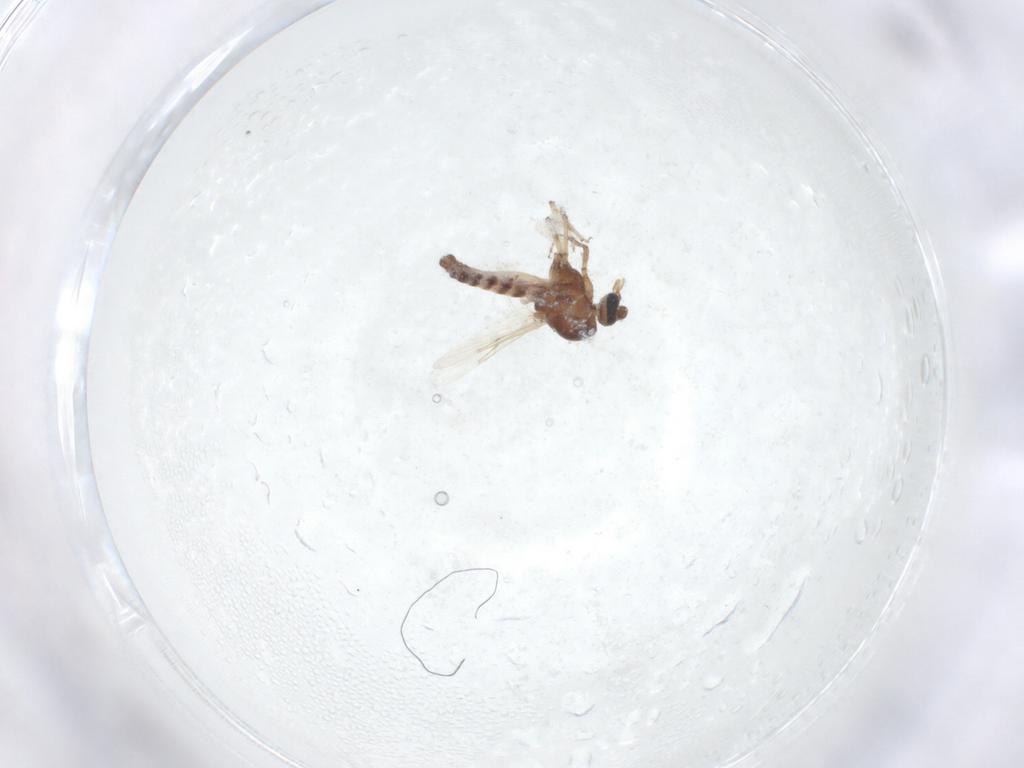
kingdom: Animalia
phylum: Arthropoda
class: Insecta
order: Diptera
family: Ceratopogonidae
